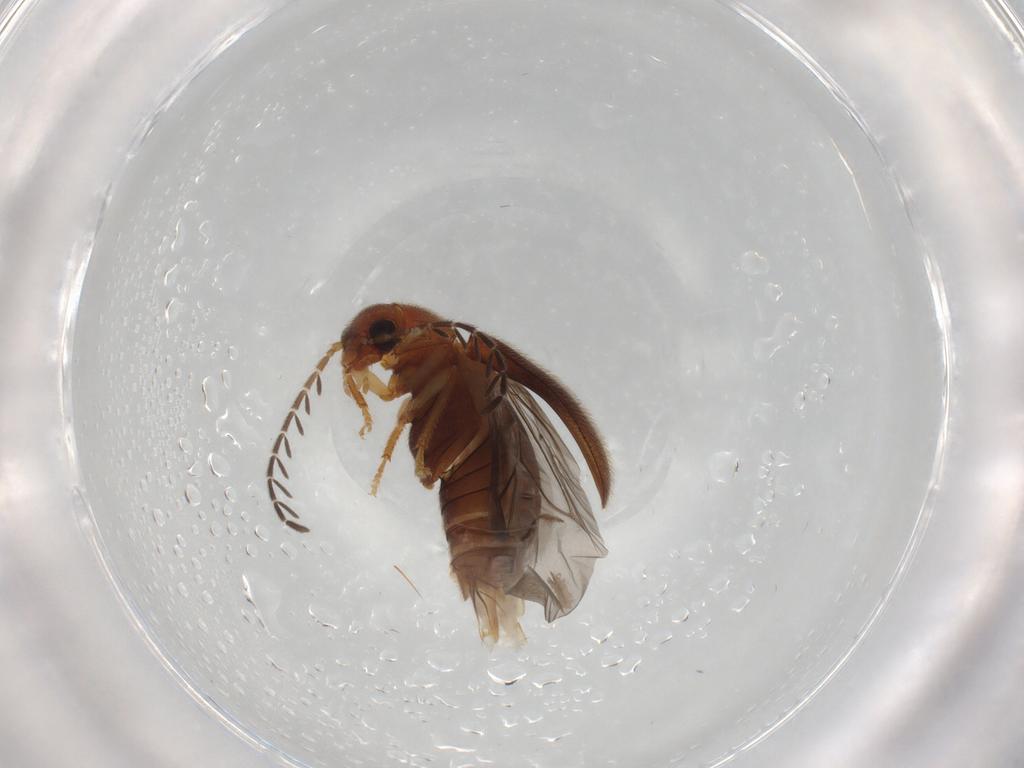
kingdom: Animalia
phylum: Arthropoda
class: Insecta
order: Coleoptera
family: Ptilodactylidae
